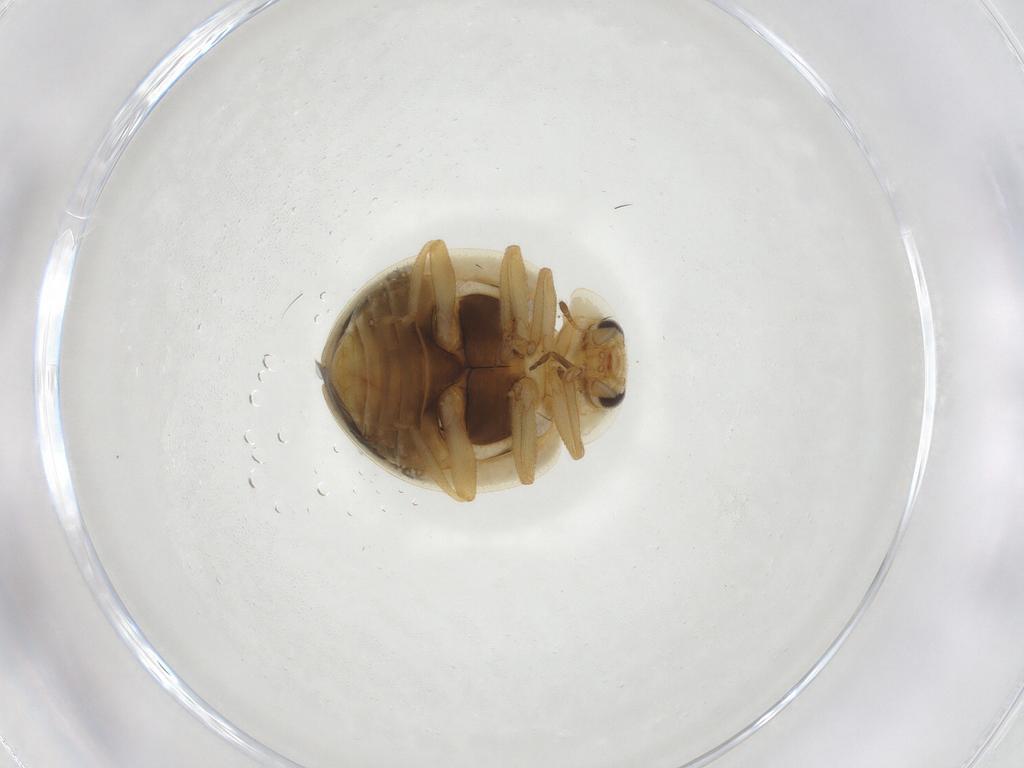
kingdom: Animalia
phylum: Arthropoda
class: Insecta
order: Coleoptera
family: Coccinellidae
